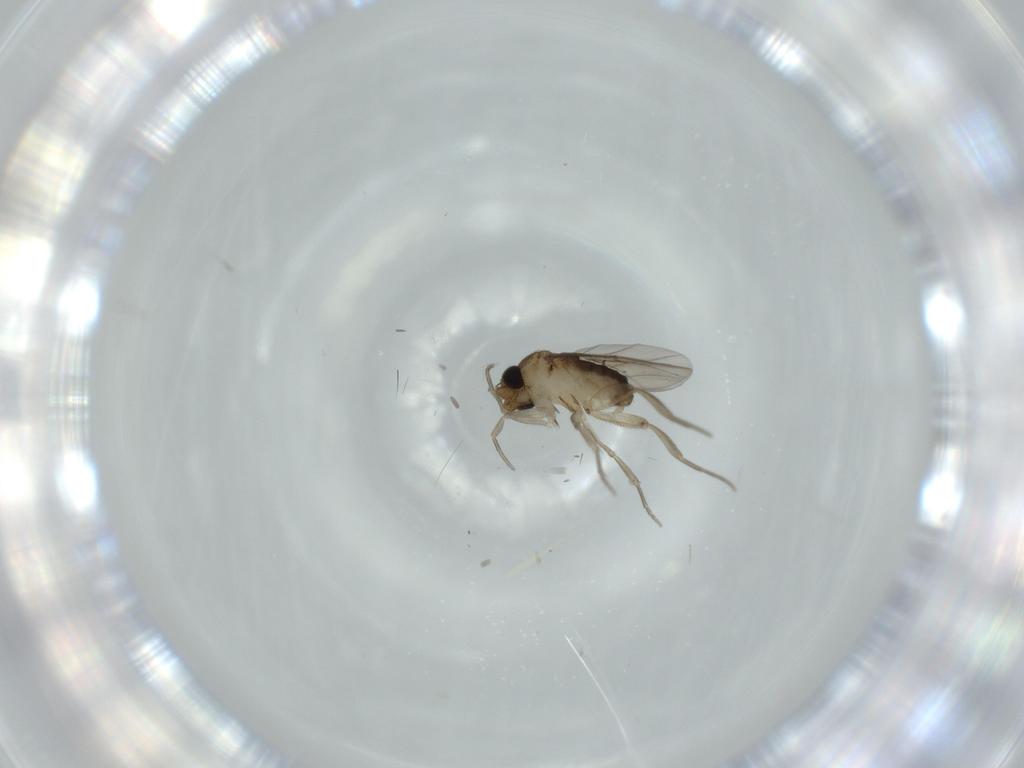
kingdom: Animalia
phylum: Arthropoda
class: Insecta
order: Diptera
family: Phoridae
